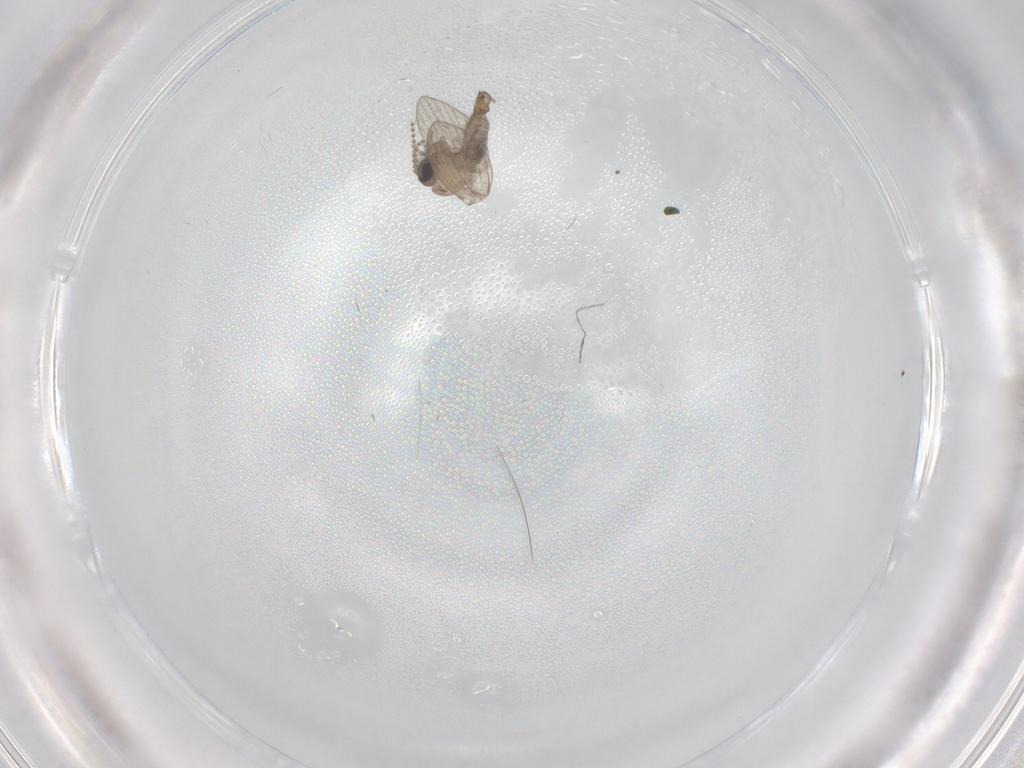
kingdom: Animalia
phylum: Arthropoda
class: Insecta
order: Diptera
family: Psychodidae
